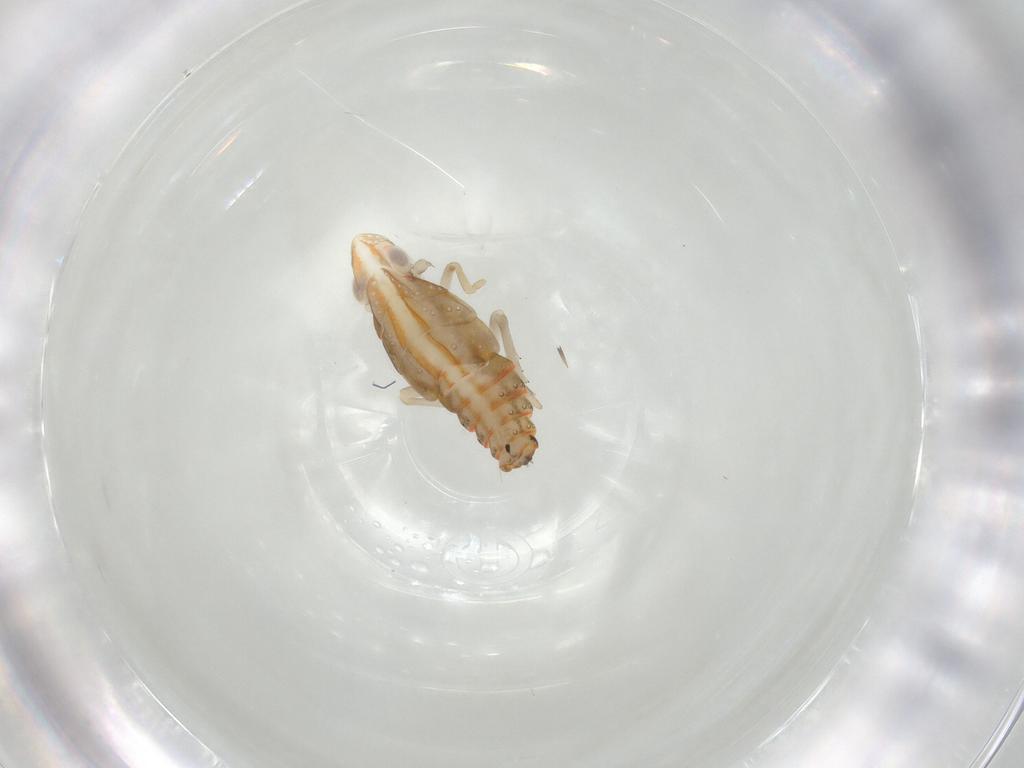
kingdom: Animalia
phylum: Arthropoda
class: Insecta
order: Hemiptera
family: Tropiduchidae
